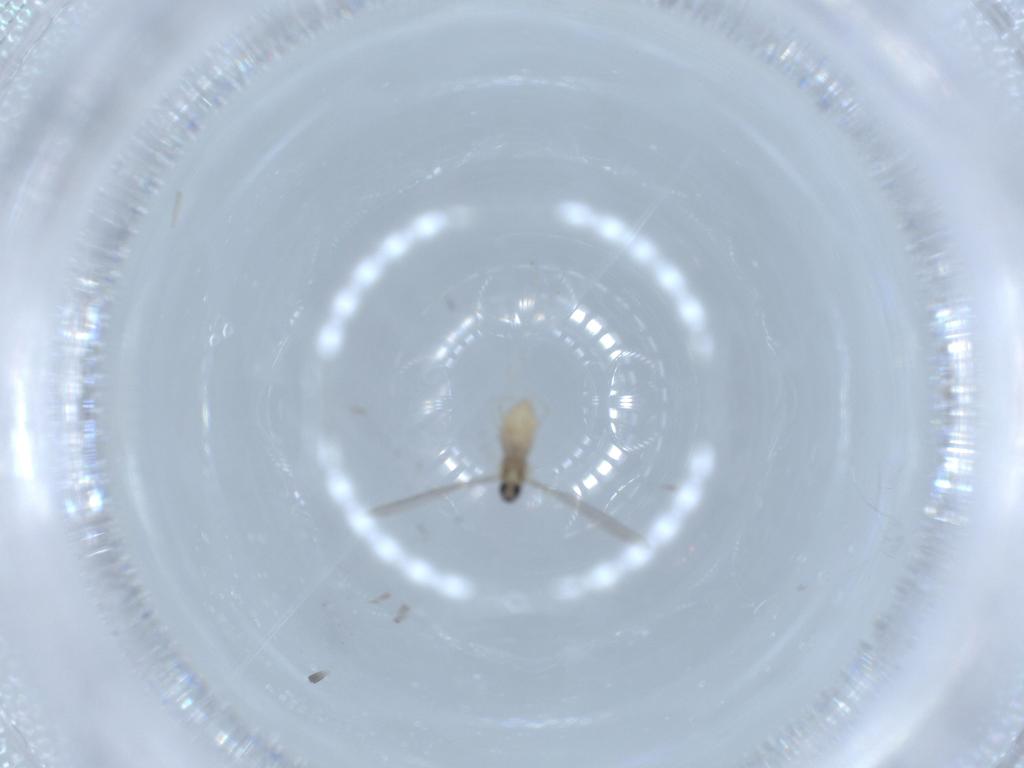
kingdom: Animalia
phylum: Arthropoda
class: Insecta
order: Diptera
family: Cecidomyiidae
